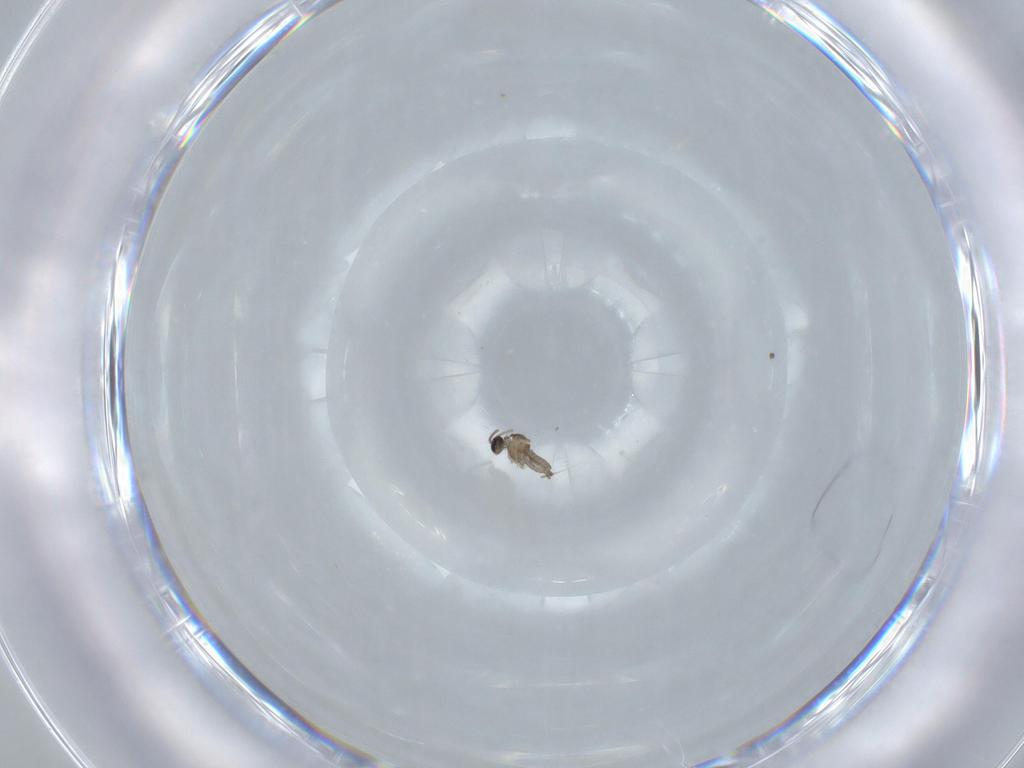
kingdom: Animalia
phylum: Arthropoda
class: Insecta
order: Diptera
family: Cecidomyiidae
